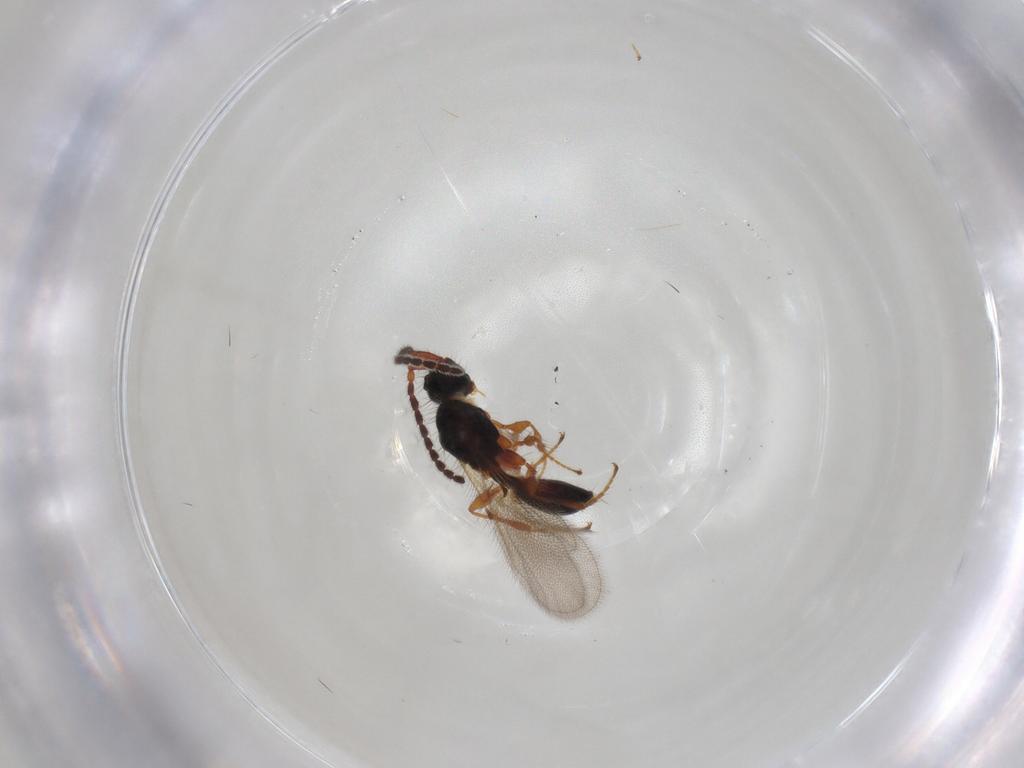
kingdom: Animalia
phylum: Arthropoda
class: Insecta
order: Hymenoptera
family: Diapriidae
